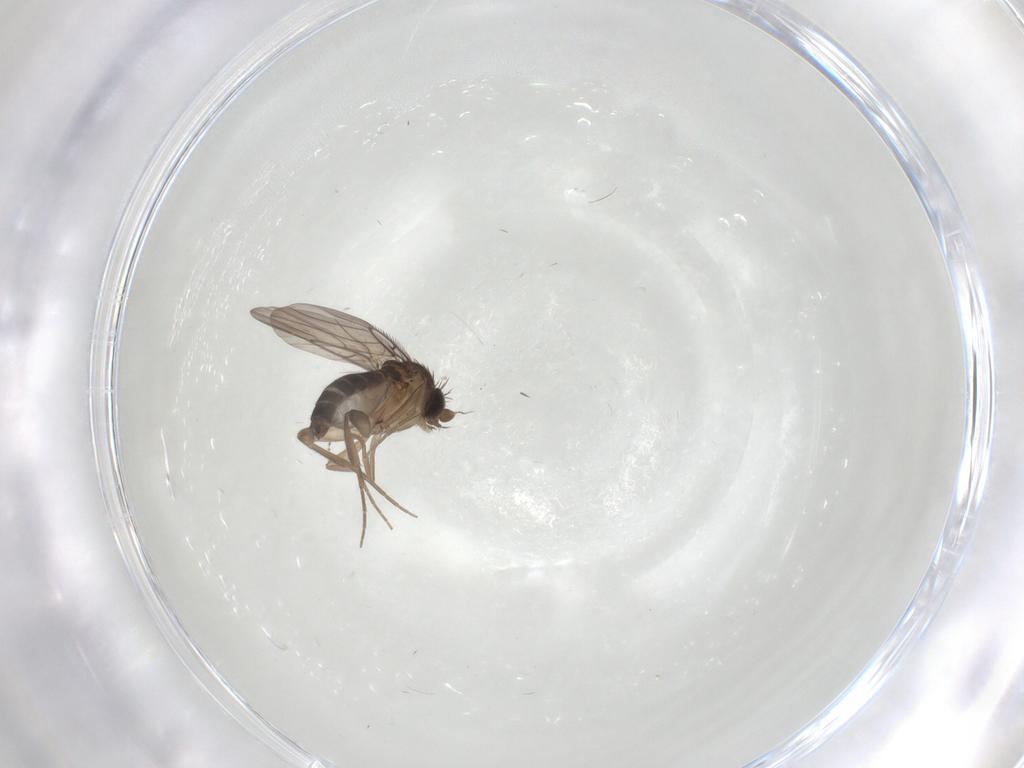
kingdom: Animalia
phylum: Arthropoda
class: Insecta
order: Diptera
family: Cecidomyiidae
